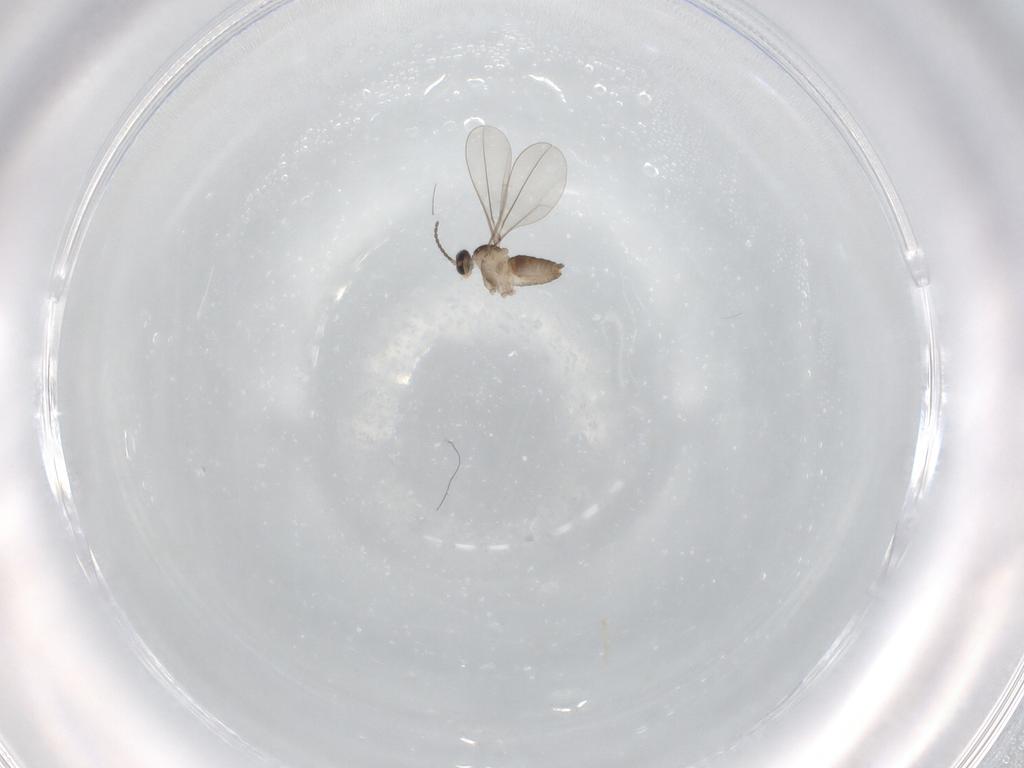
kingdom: Animalia
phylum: Arthropoda
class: Insecta
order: Diptera
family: Cecidomyiidae
